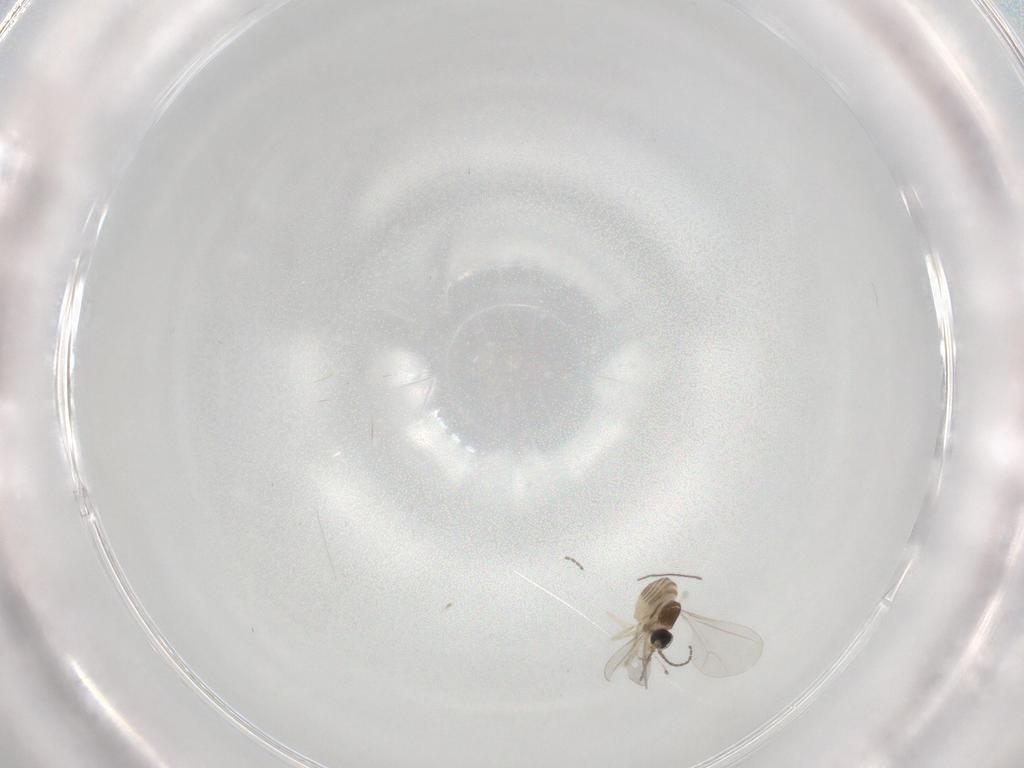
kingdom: Animalia
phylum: Arthropoda
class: Insecta
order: Diptera
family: Cecidomyiidae
